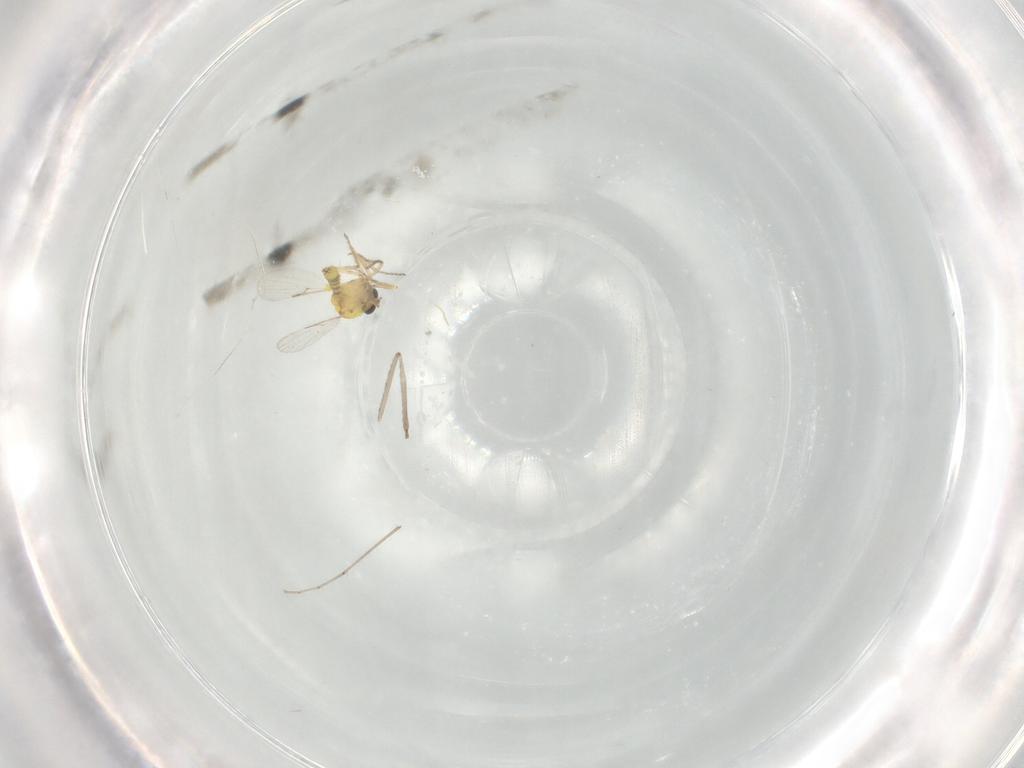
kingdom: Animalia
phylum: Arthropoda
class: Insecta
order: Diptera
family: Ceratopogonidae
